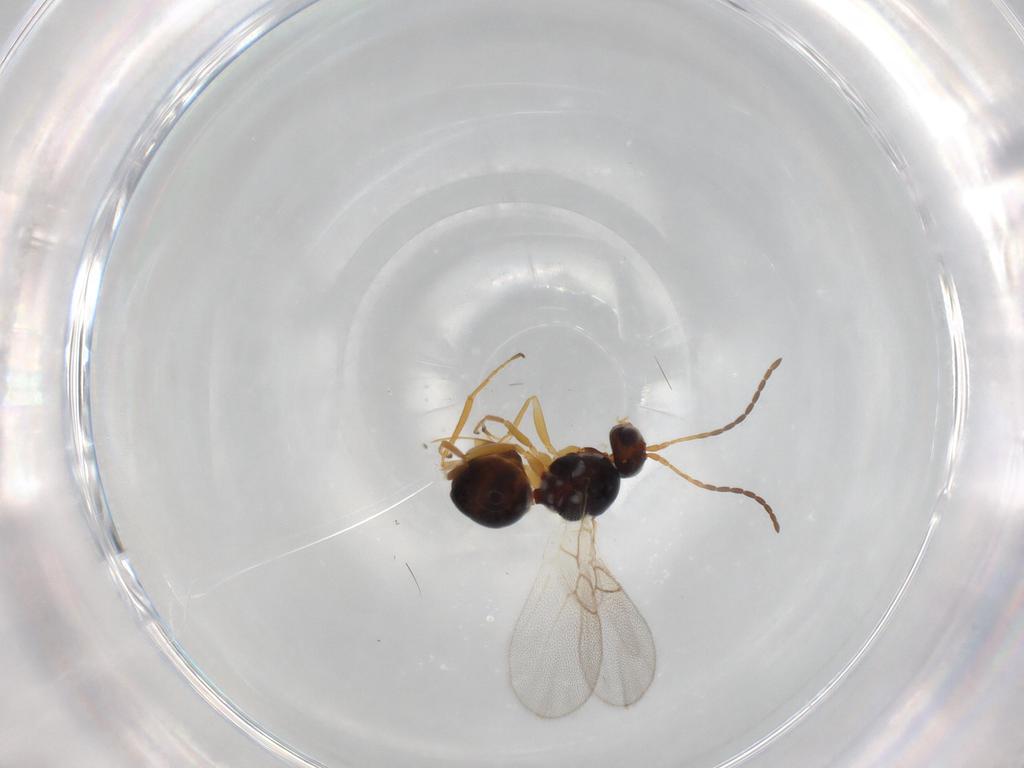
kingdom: Animalia
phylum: Arthropoda
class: Insecta
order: Hymenoptera
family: Figitidae
